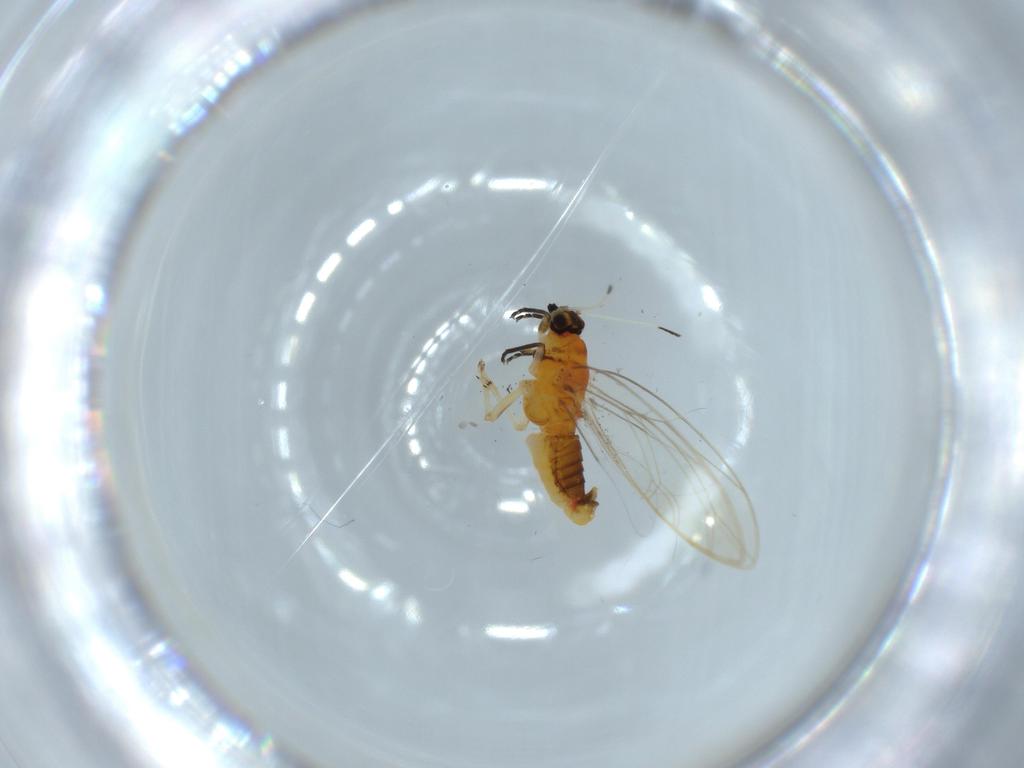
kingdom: Animalia
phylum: Arthropoda
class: Insecta
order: Hemiptera
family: Triozidae
